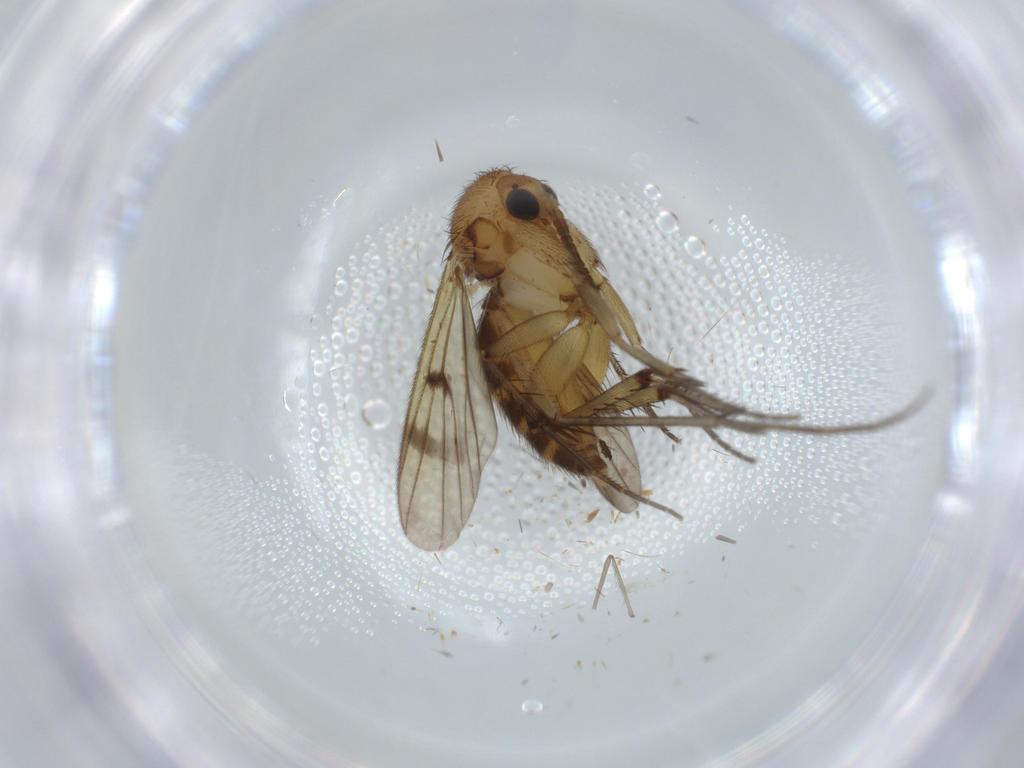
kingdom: Animalia
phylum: Arthropoda
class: Insecta
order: Diptera
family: Mycetophilidae
